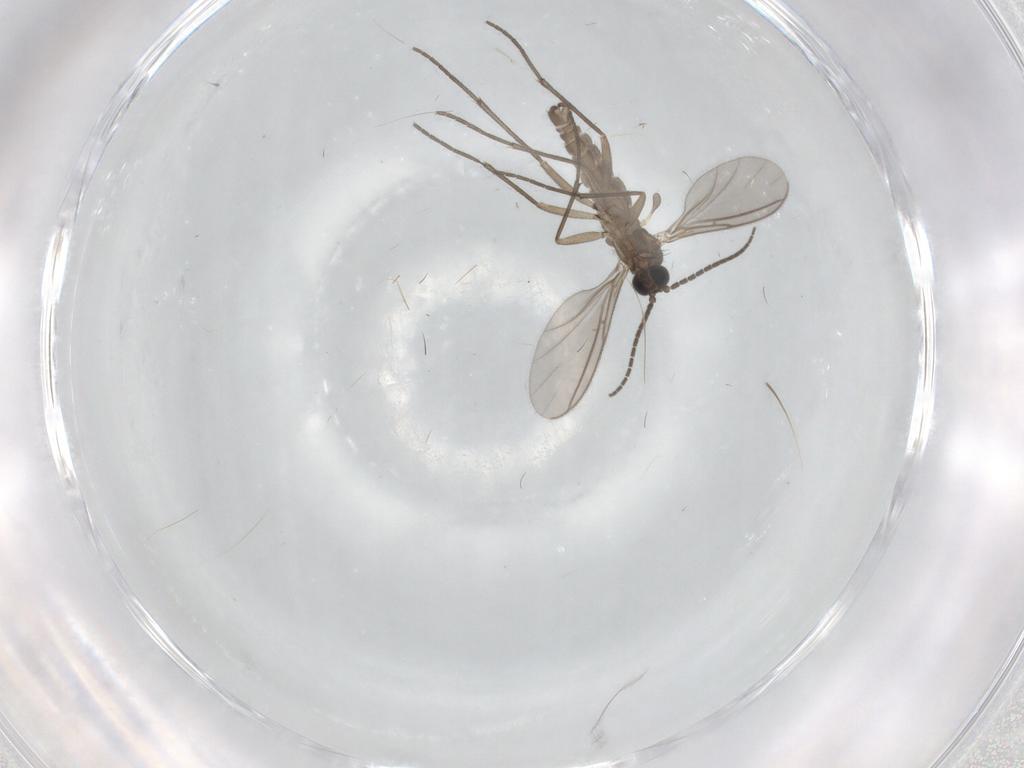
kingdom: Animalia
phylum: Arthropoda
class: Insecta
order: Diptera
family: Sciaridae
